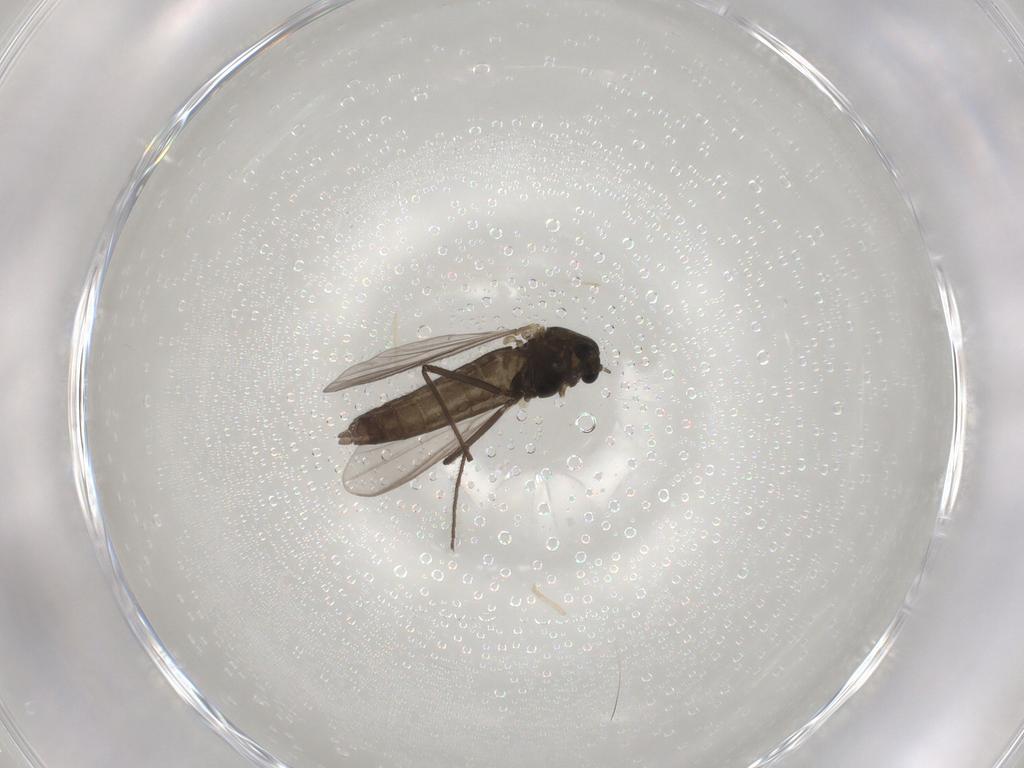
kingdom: Animalia
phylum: Arthropoda
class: Insecta
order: Diptera
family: Chironomidae
